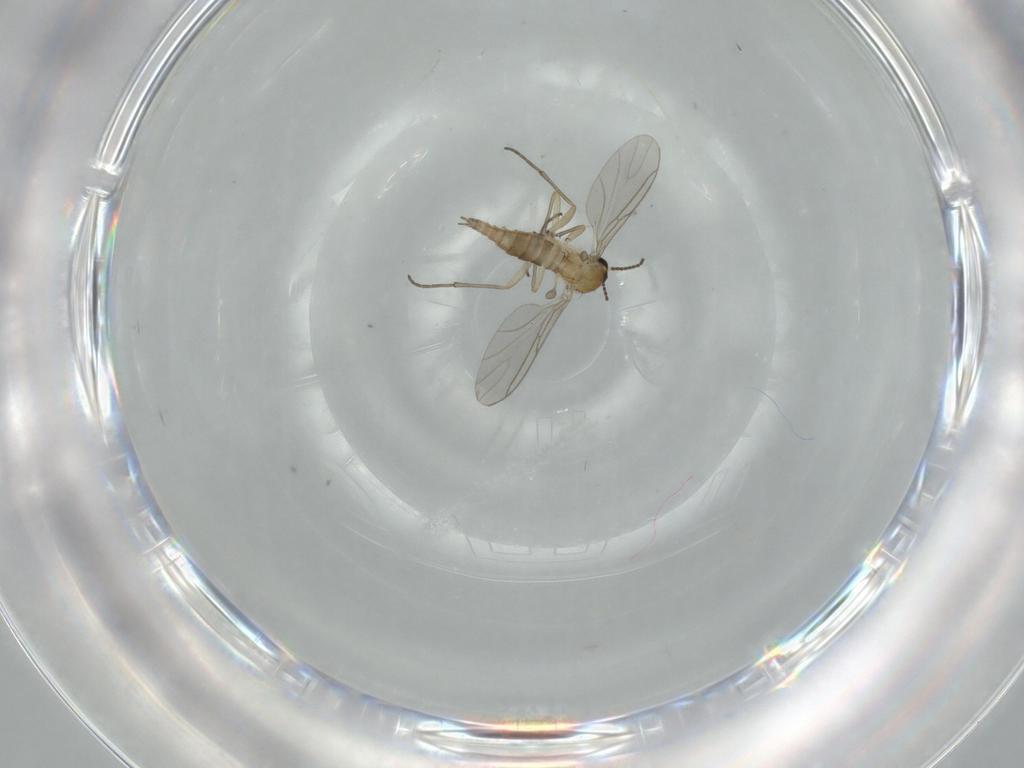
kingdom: Animalia
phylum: Arthropoda
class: Insecta
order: Diptera
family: Sciaridae
